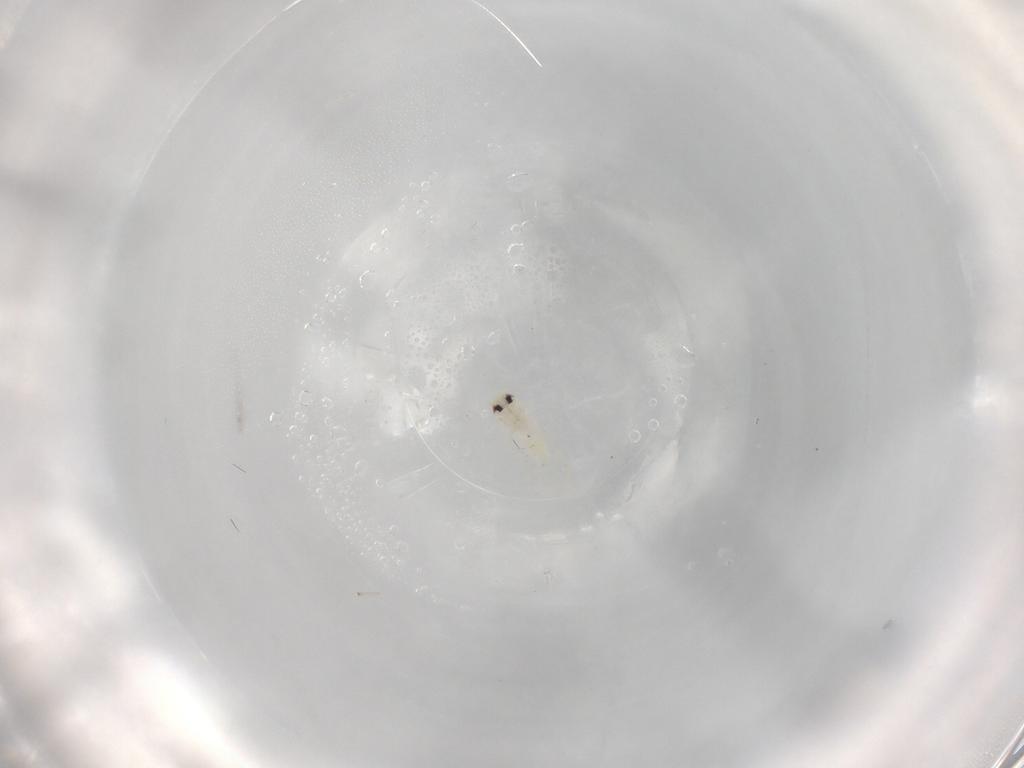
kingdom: Animalia
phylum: Arthropoda
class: Insecta
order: Hemiptera
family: Aleyrodidae
